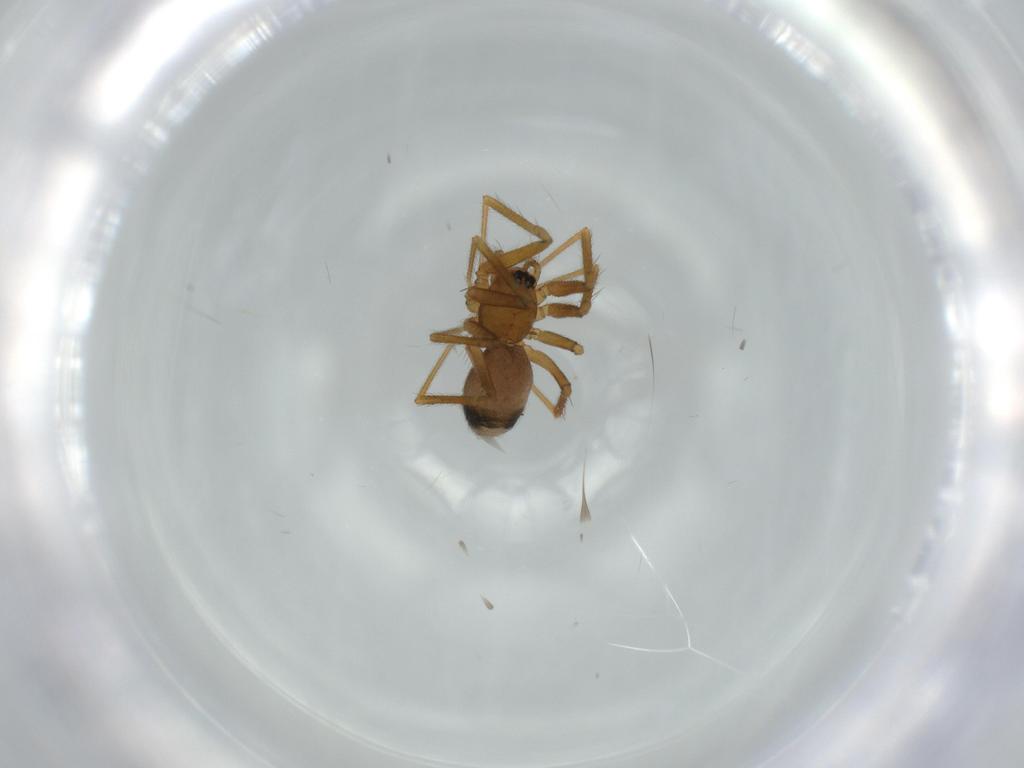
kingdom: Animalia
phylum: Arthropoda
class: Arachnida
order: Araneae
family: Linyphiidae
